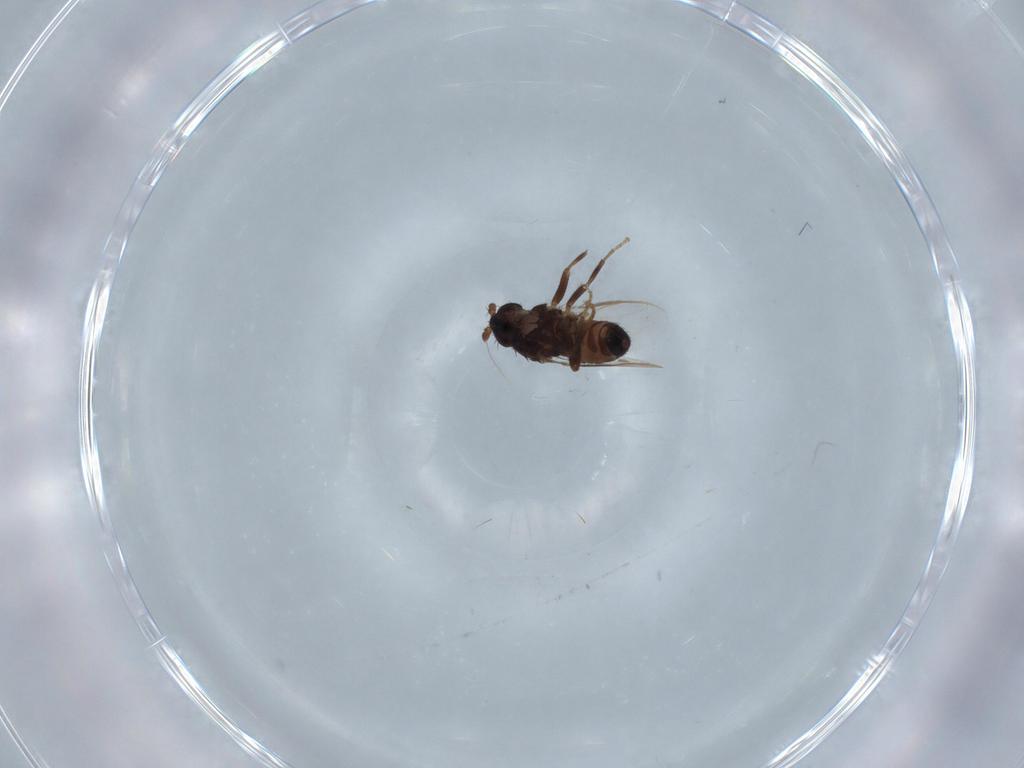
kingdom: Animalia
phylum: Arthropoda
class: Insecta
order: Diptera
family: Sphaeroceridae
